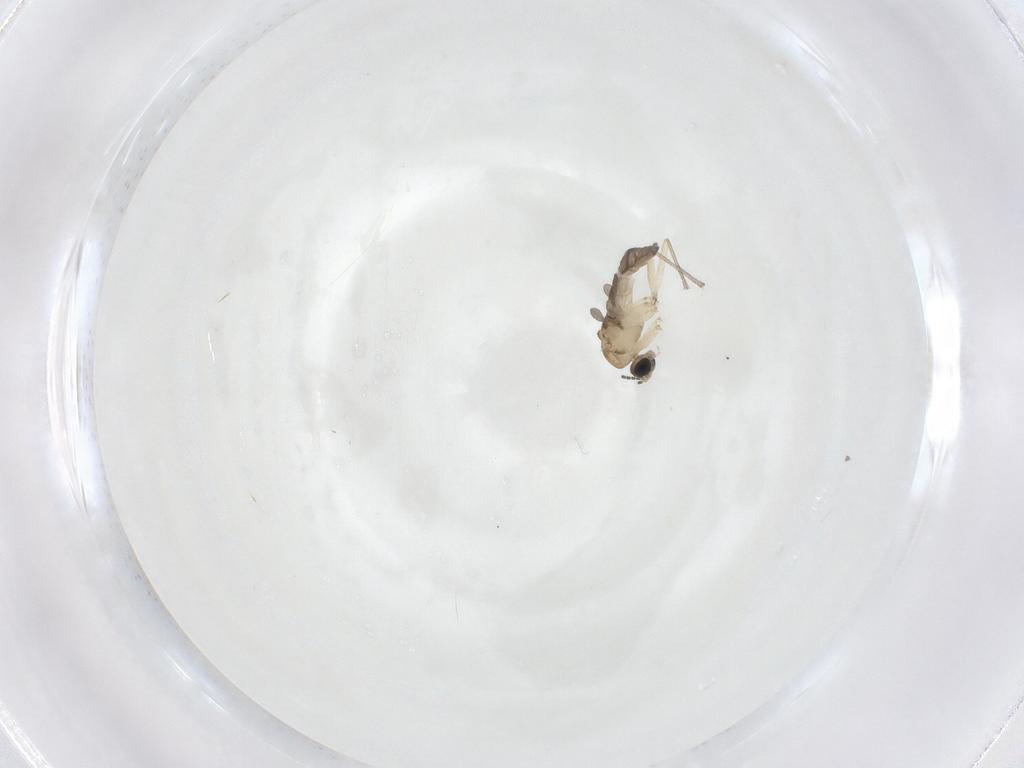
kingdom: Animalia
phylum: Arthropoda
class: Insecta
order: Diptera
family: Sciaridae
